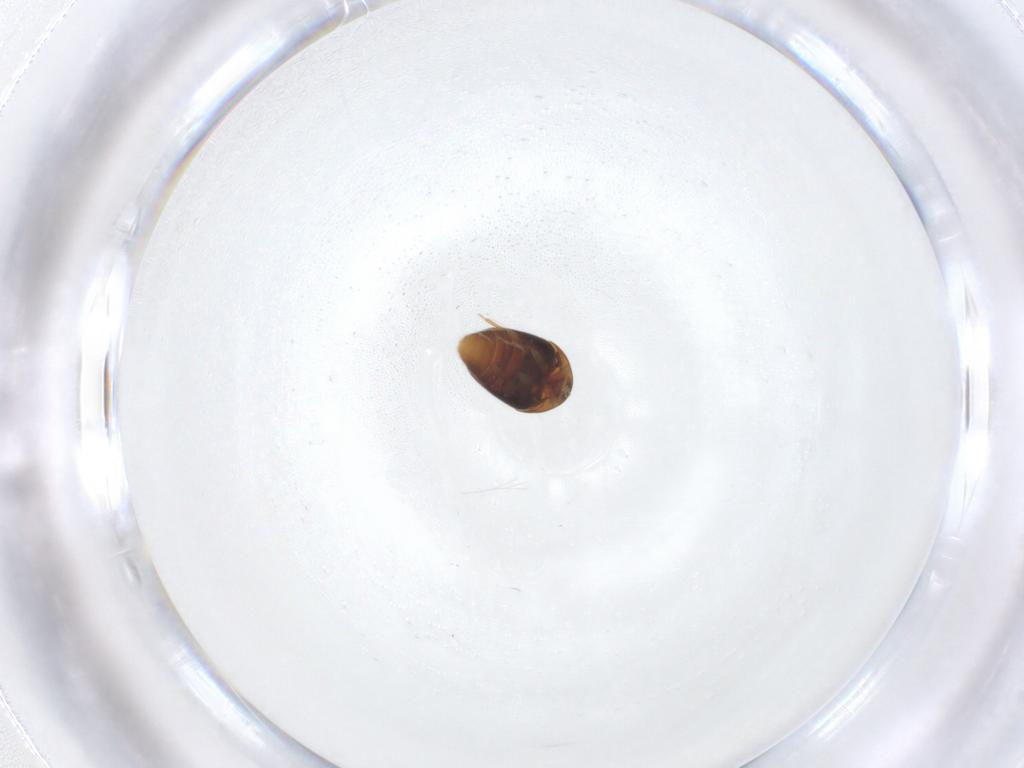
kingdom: Animalia
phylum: Arthropoda
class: Insecta
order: Coleoptera
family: Corylophidae
